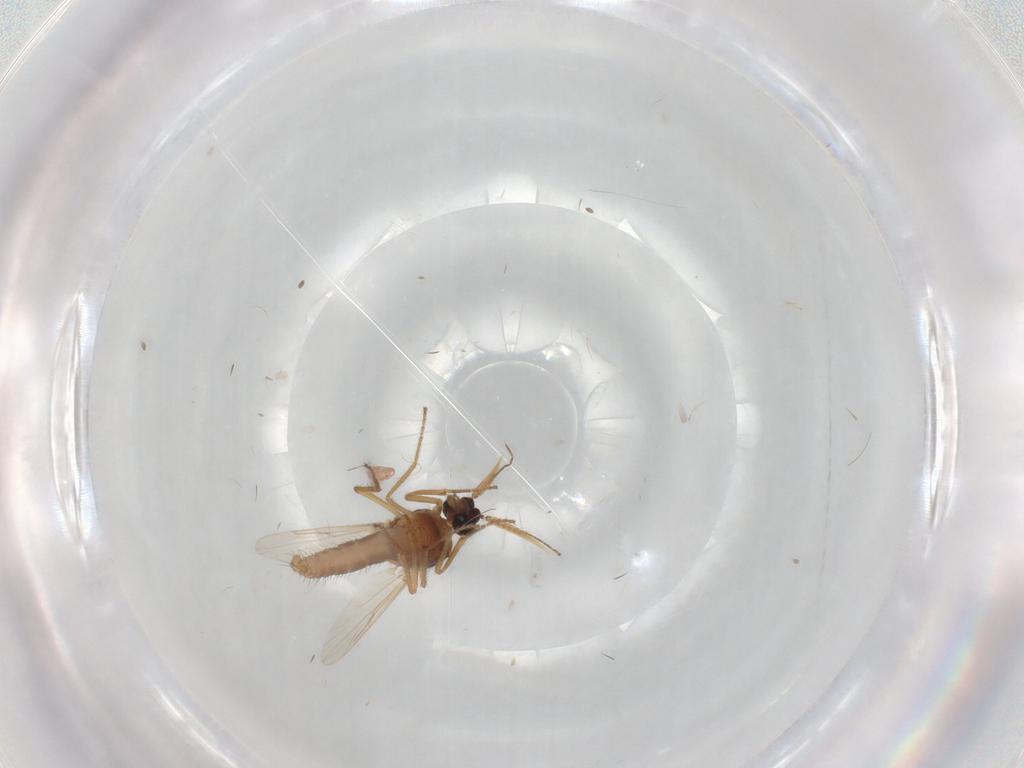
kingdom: Animalia
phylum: Arthropoda
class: Insecta
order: Diptera
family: Ceratopogonidae
